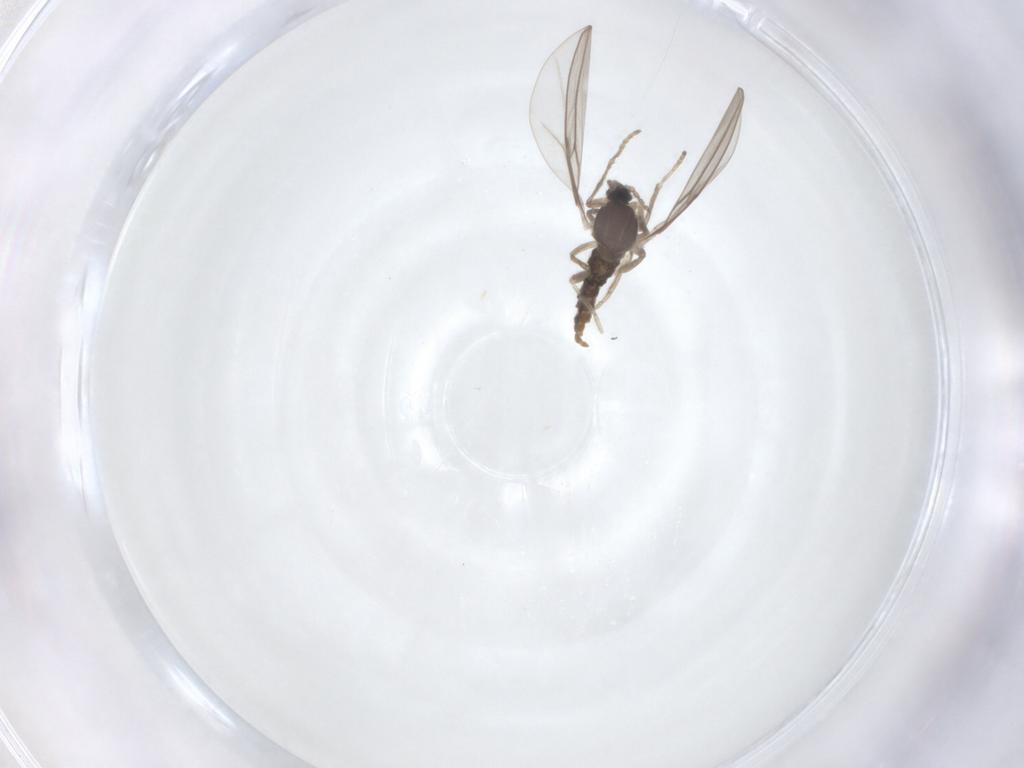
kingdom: Animalia
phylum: Arthropoda
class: Insecta
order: Diptera
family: Cecidomyiidae
